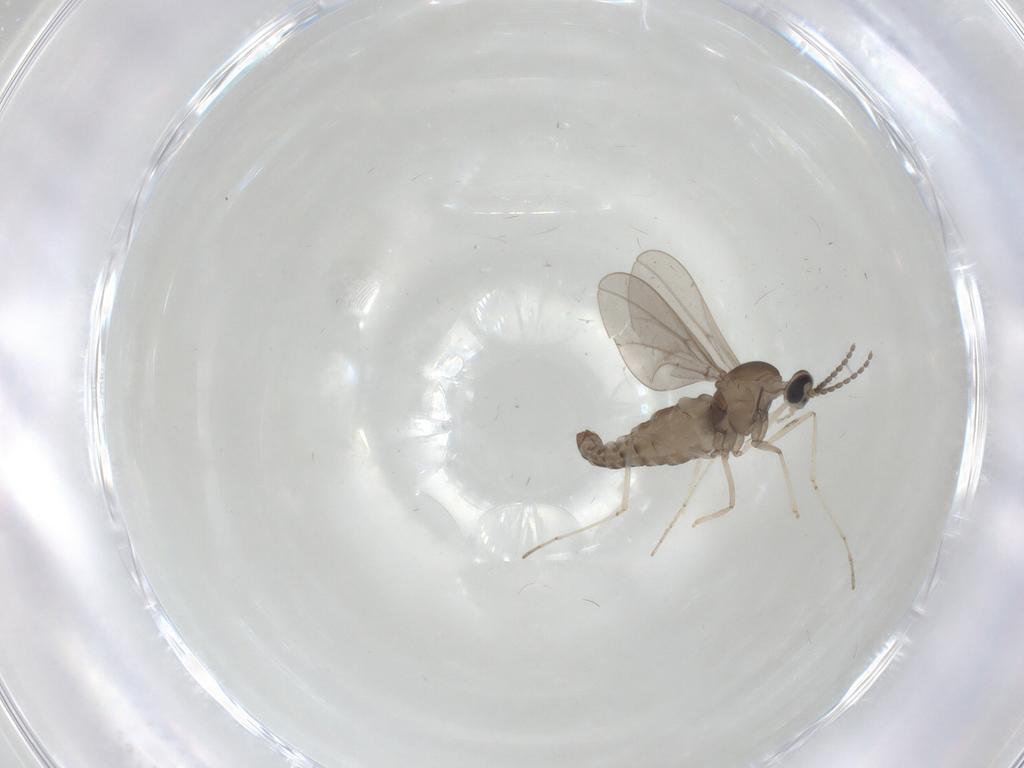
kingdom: Animalia
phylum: Arthropoda
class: Insecta
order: Diptera
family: Cecidomyiidae
